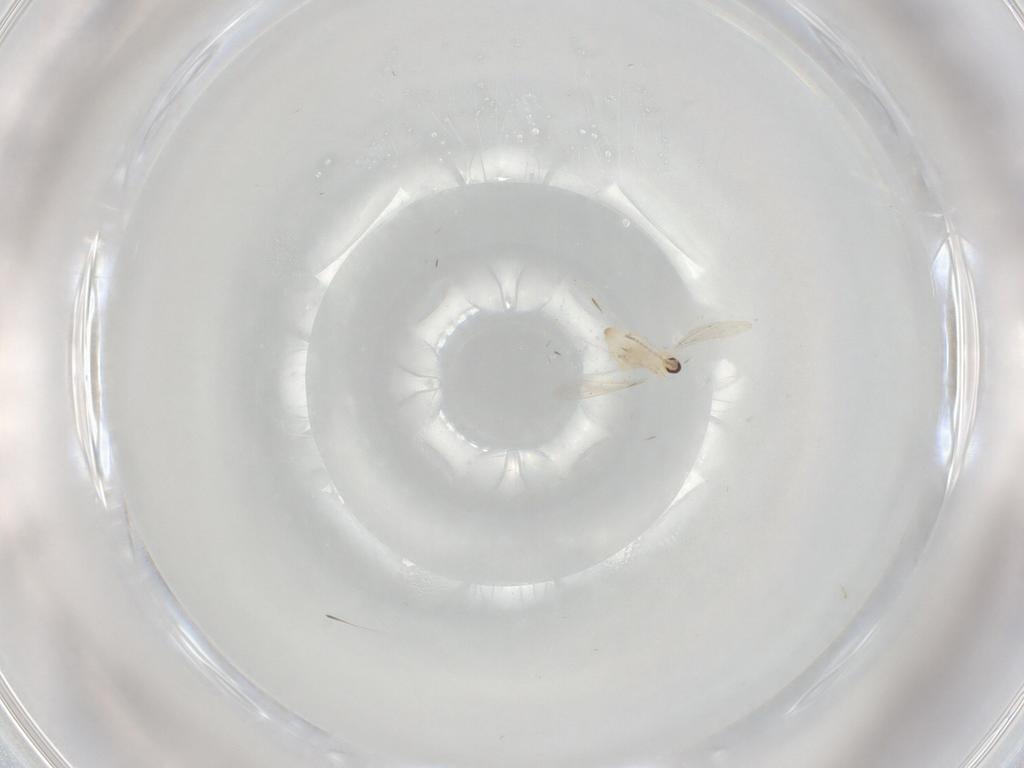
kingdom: Animalia
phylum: Arthropoda
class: Insecta
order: Diptera
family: Cecidomyiidae
